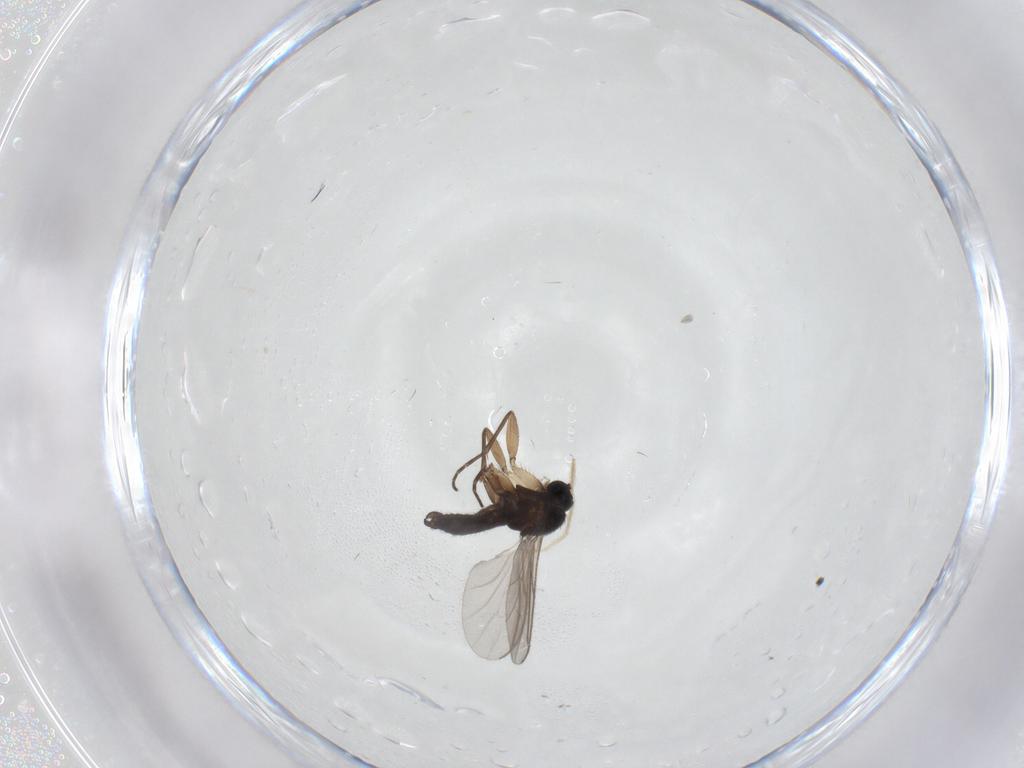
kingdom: Animalia
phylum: Arthropoda
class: Insecta
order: Diptera
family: Sciaridae
